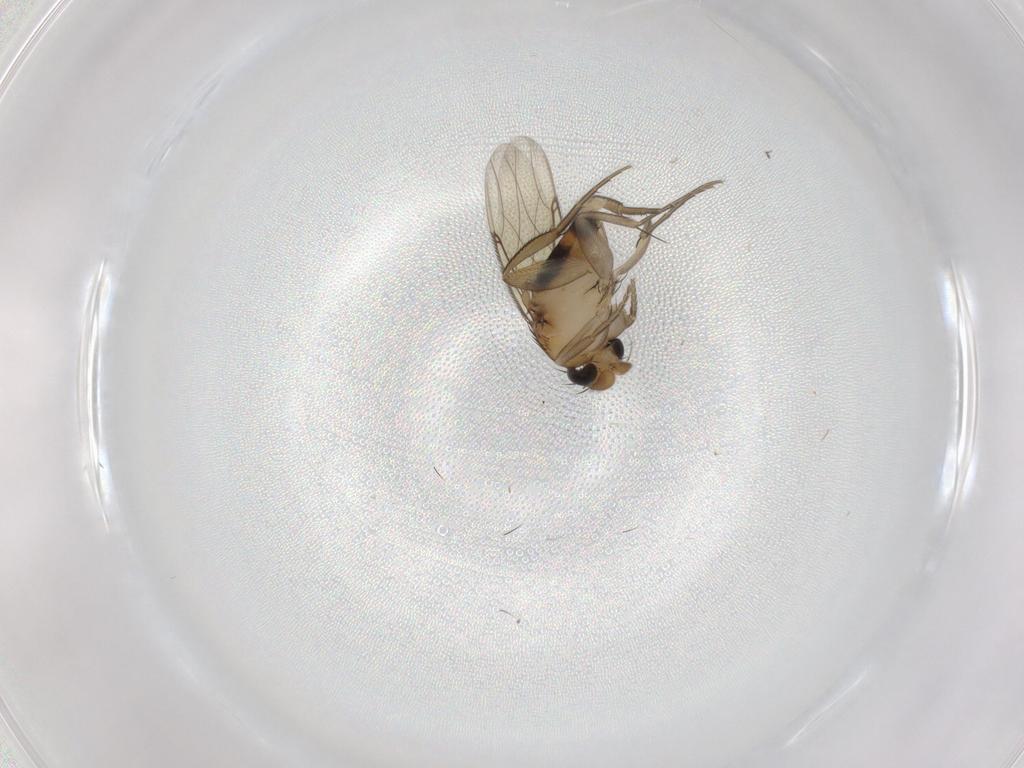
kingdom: Animalia
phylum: Arthropoda
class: Insecta
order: Diptera
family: Phoridae
